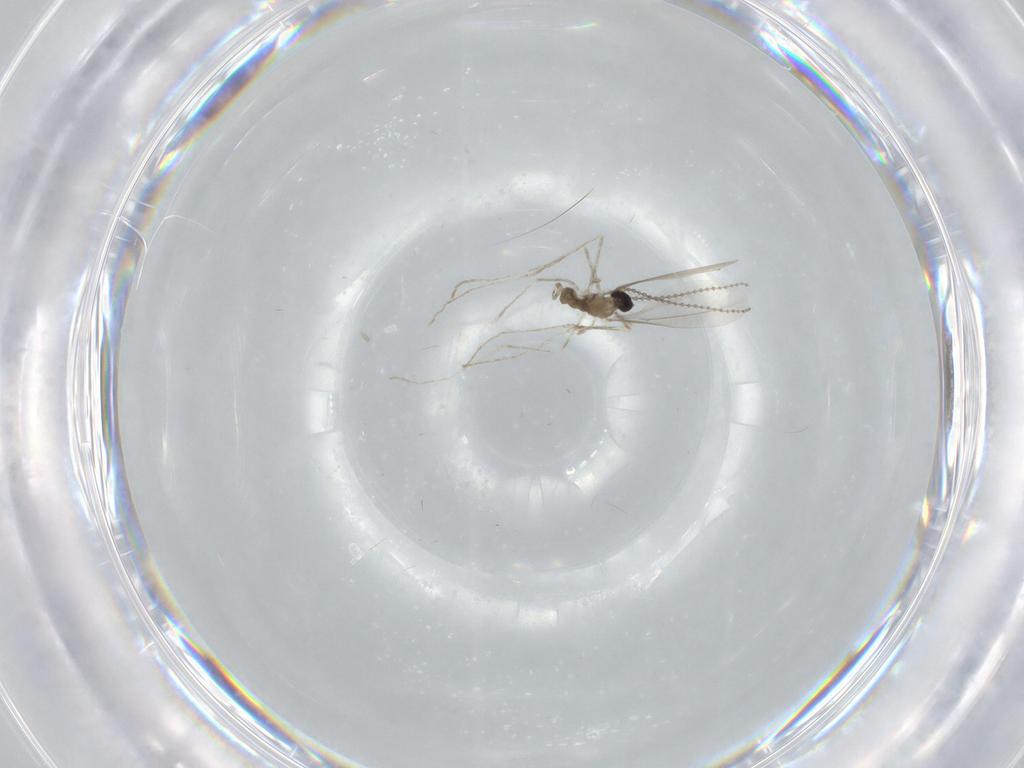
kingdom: Animalia
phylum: Arthropoda
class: Insecta
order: Diptera
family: Cecidomyiidae
